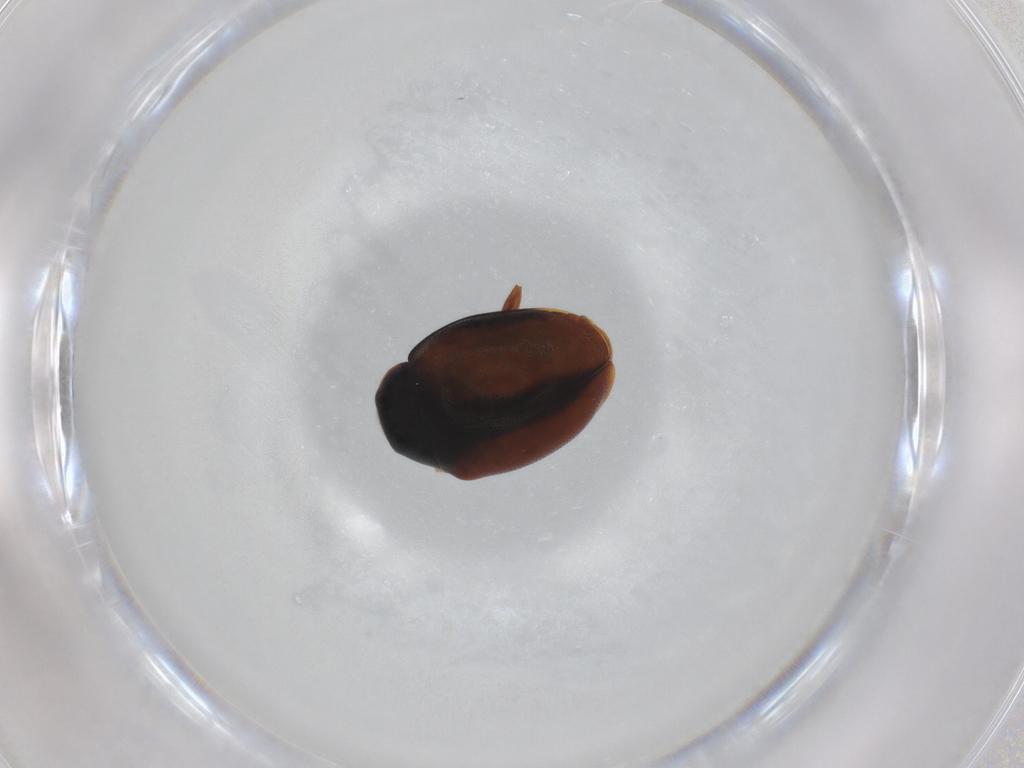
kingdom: Animalia
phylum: Arthropoda
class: Insecta
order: Coleoptera
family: Coccinellidae
